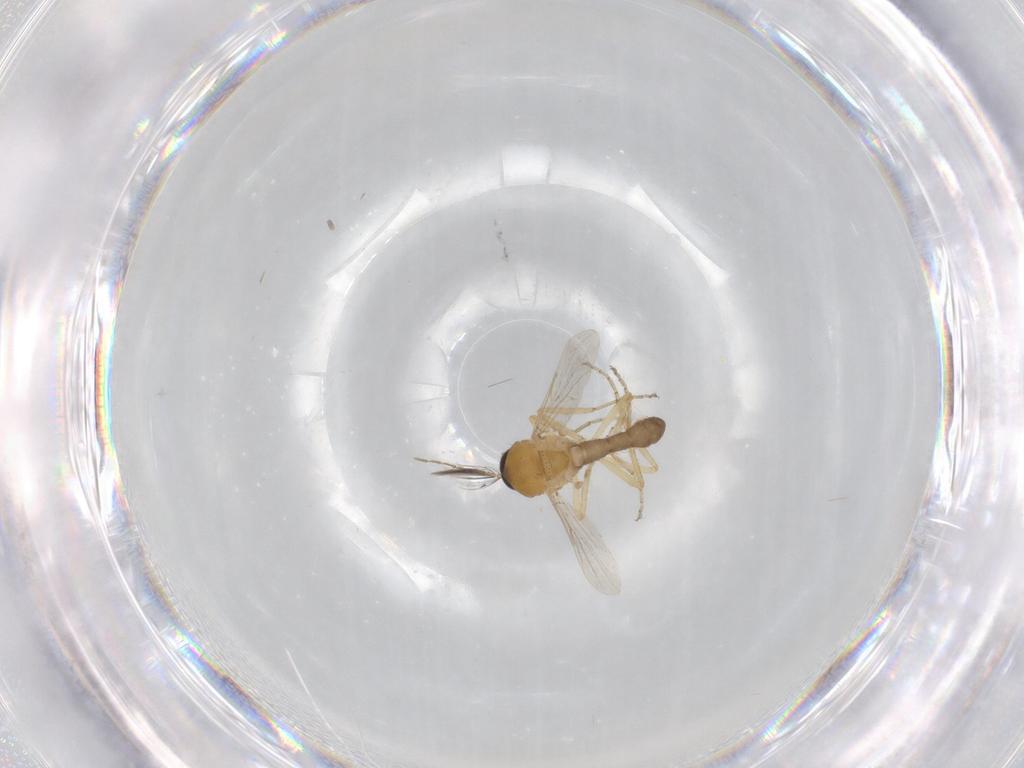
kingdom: Animalia
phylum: Arthropoda
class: Insecta
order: Diptera
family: Ceratopogonidae
